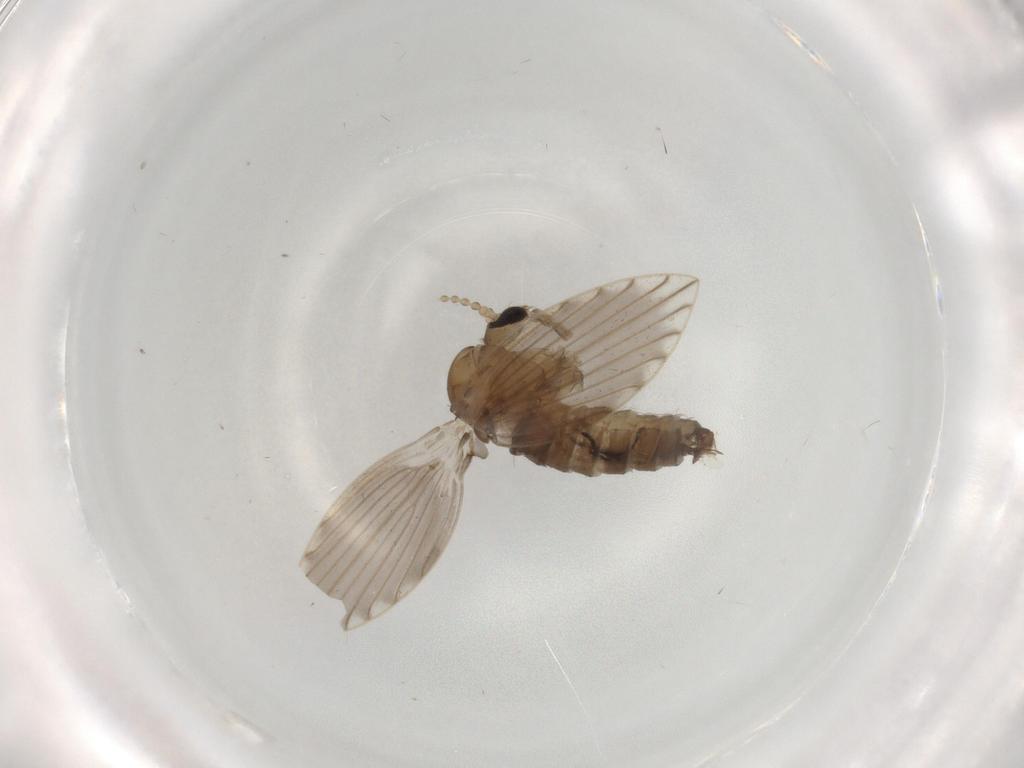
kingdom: Animalia
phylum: Arthropoda
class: Insecta
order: Diptera
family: Psychodidae
